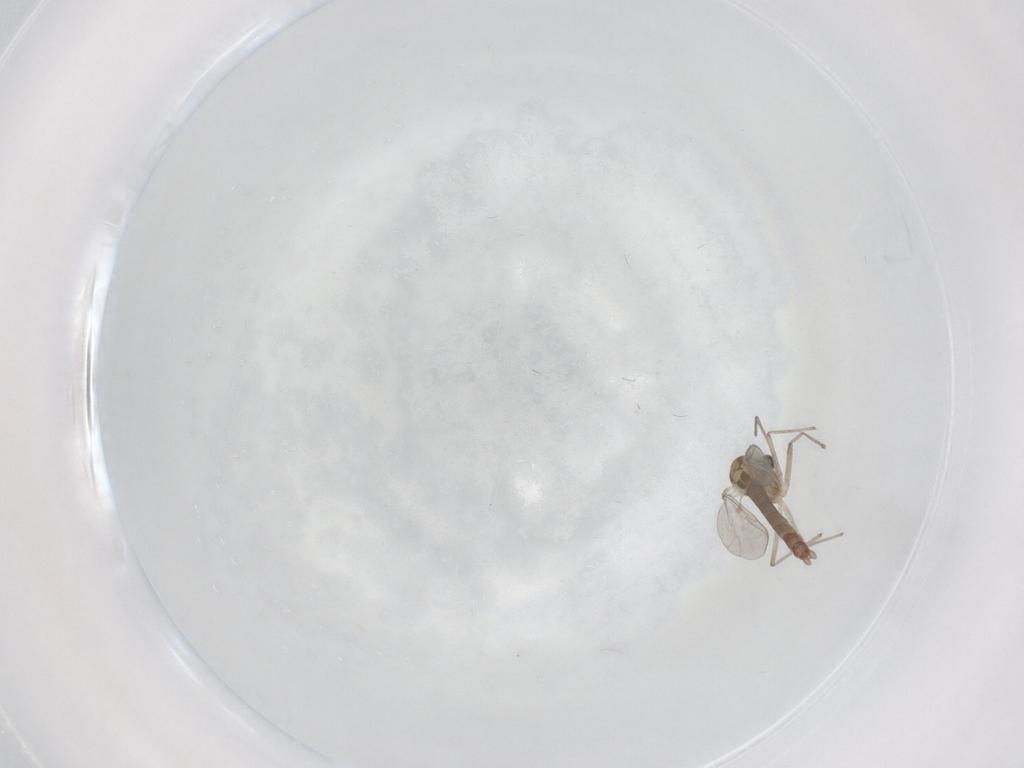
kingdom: Animalia
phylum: Arthropoda
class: Insecta
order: Diptera
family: Chironomidae
